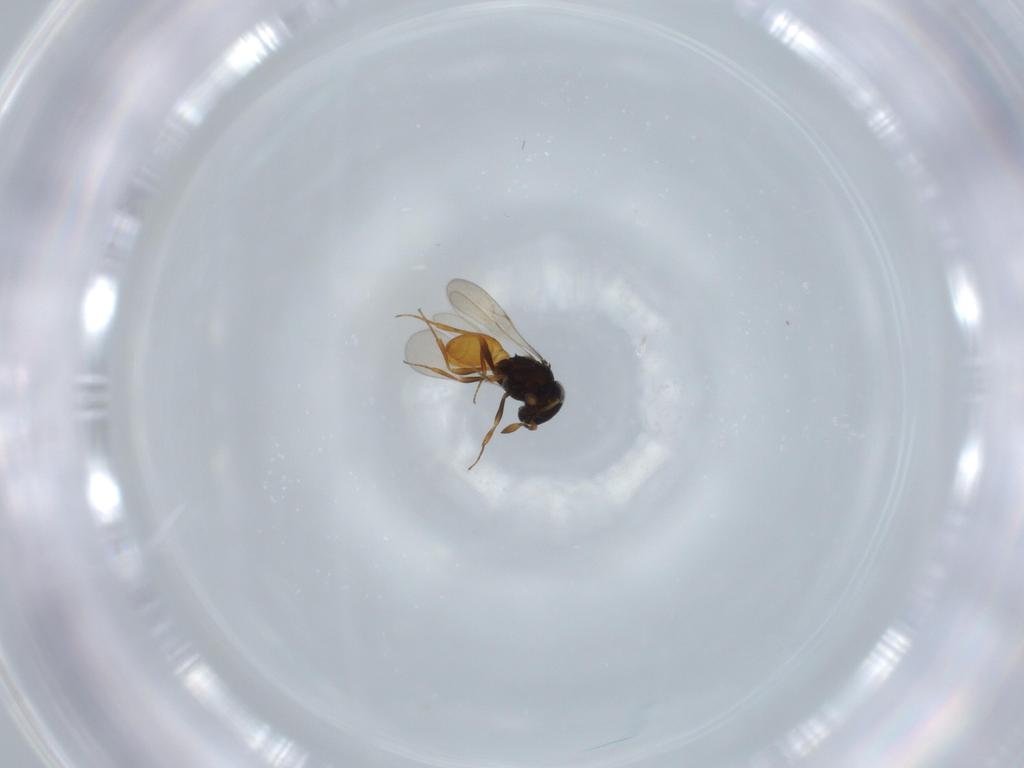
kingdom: Animalia
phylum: Arthropoda
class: Insecta
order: Hymenoptera
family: Scelionidae
